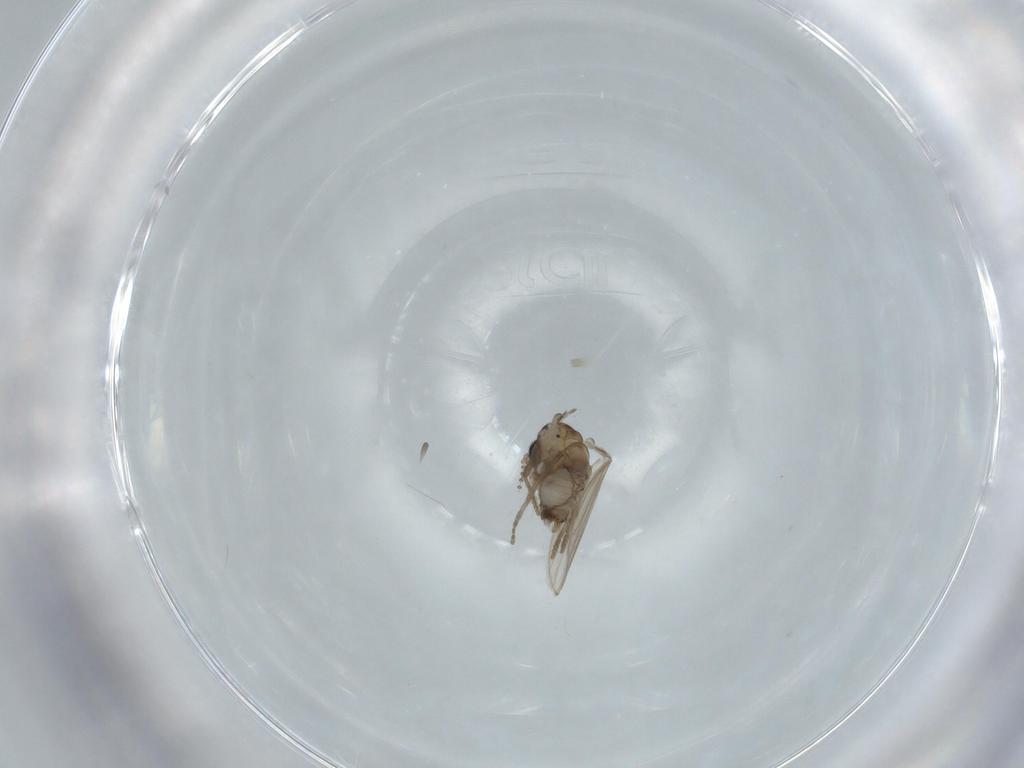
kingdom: Animalia
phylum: Arthropoda
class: Insecta
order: Diptera
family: Psychodidae
